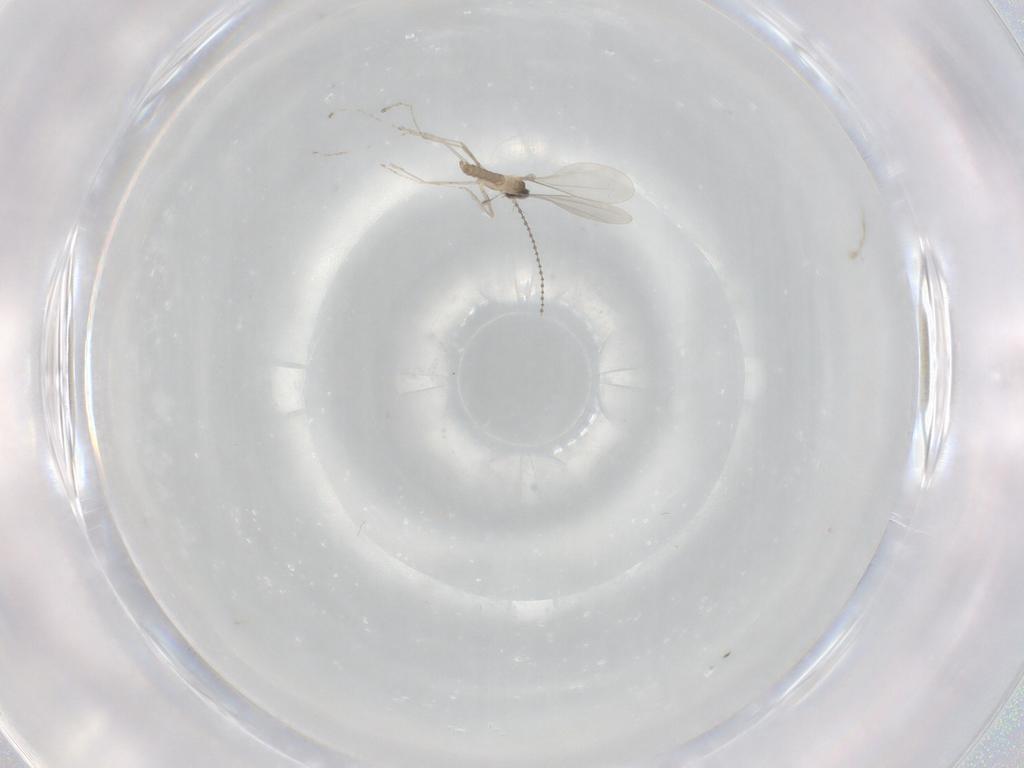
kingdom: Animalia
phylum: Arthropoda
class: Insecta
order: Diptera
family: Cecidomyiidae
